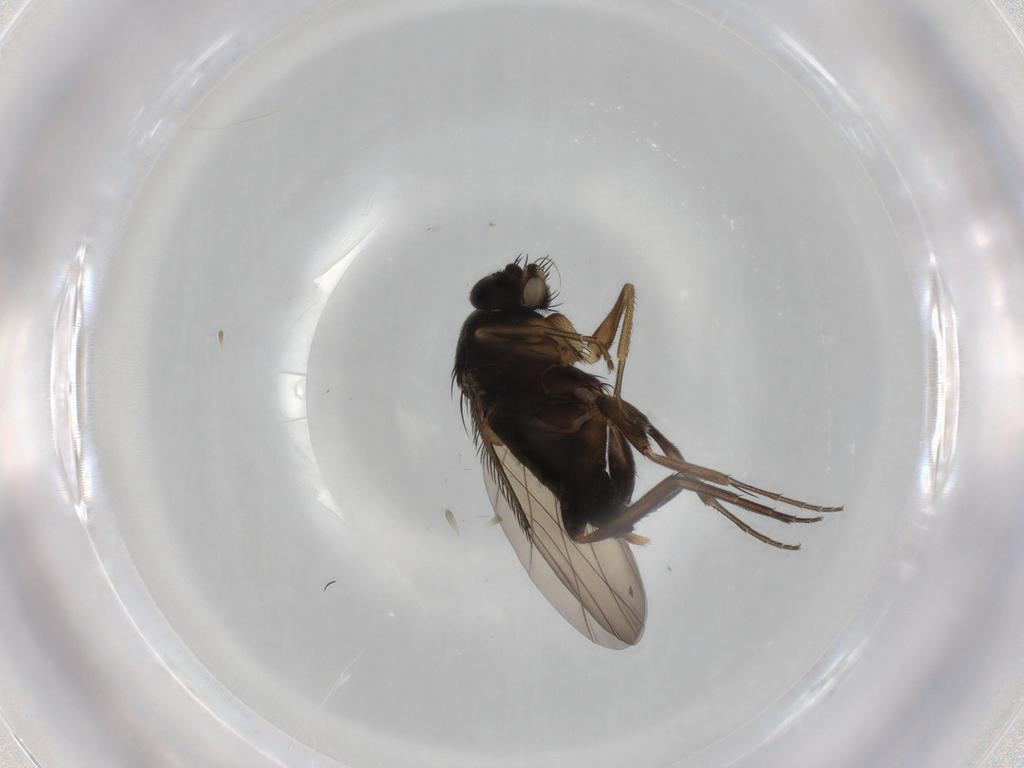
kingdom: Animalia
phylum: Arthropoda
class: Insecta
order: Diptera
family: Phoridae
